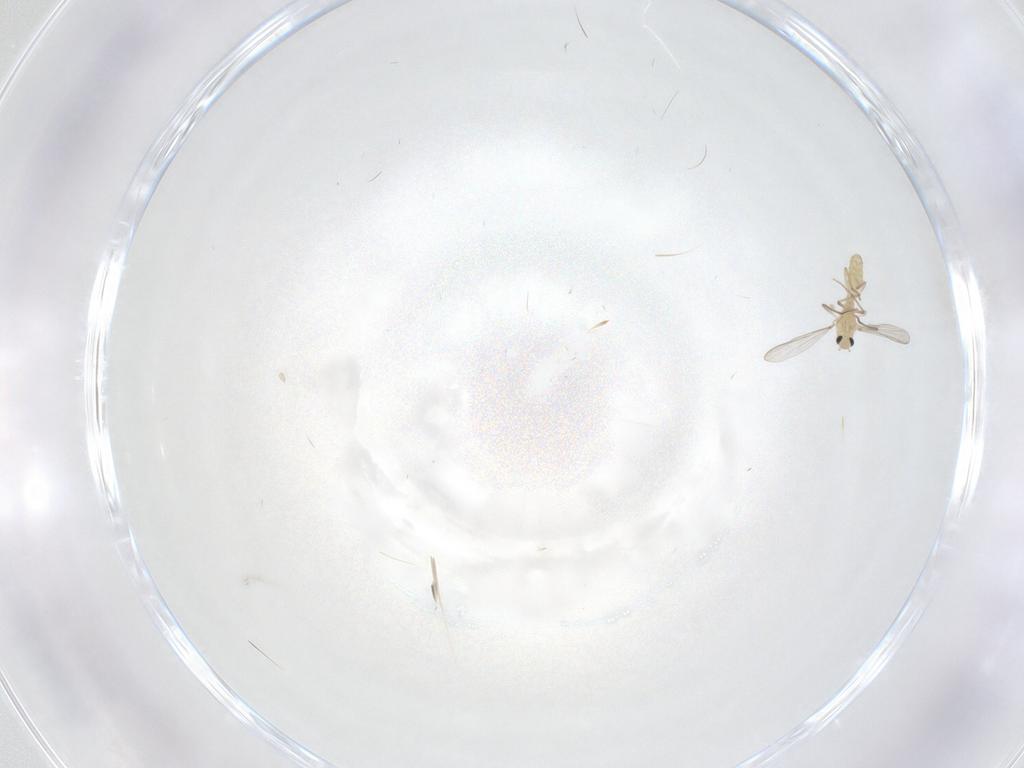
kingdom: Animalia
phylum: Arthropoda
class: Insecta
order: Diptera
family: Chironomidae
